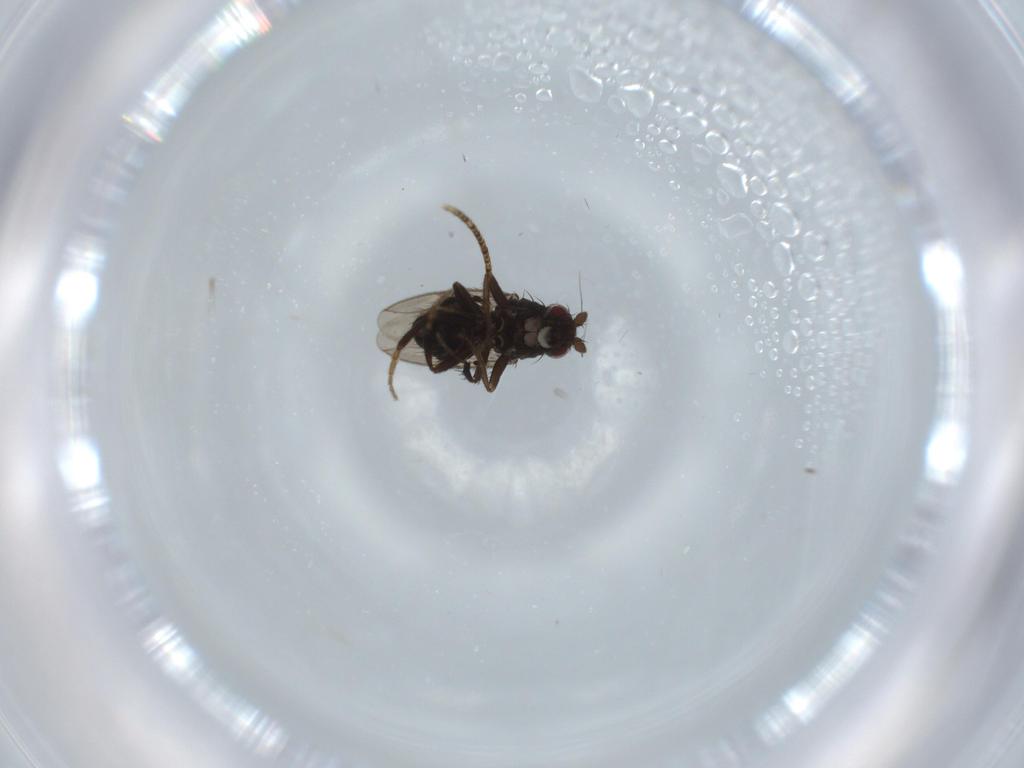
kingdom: Animalia
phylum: Arthropoda
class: Insecta
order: Diptera
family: Sphaeroceridae
